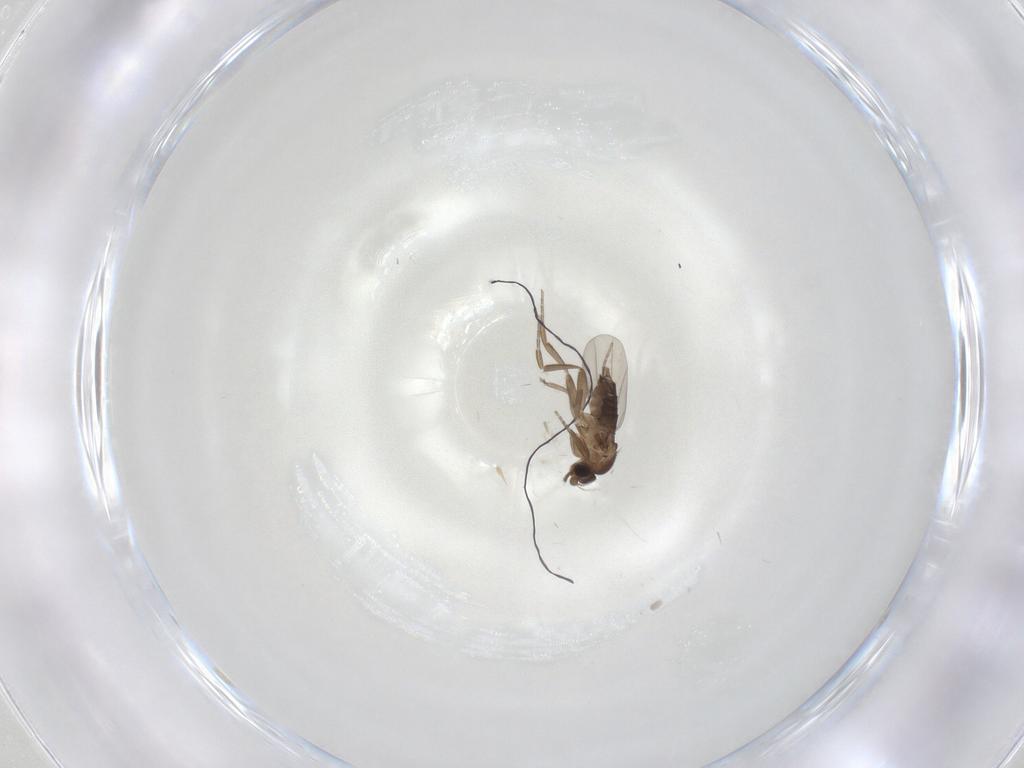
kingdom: Animalia
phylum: Arthropoda
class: Insecta
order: Diptera
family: Phoridae
